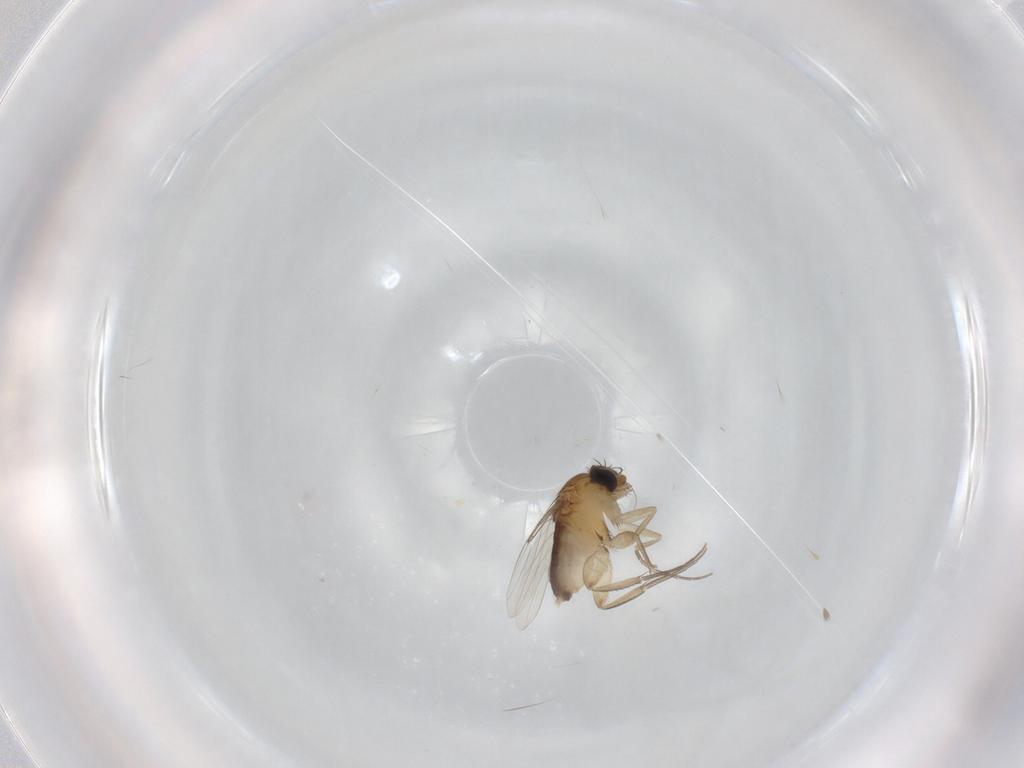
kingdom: Animalia
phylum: Arthropoda
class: Insecta
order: Diptera
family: Phoridae
